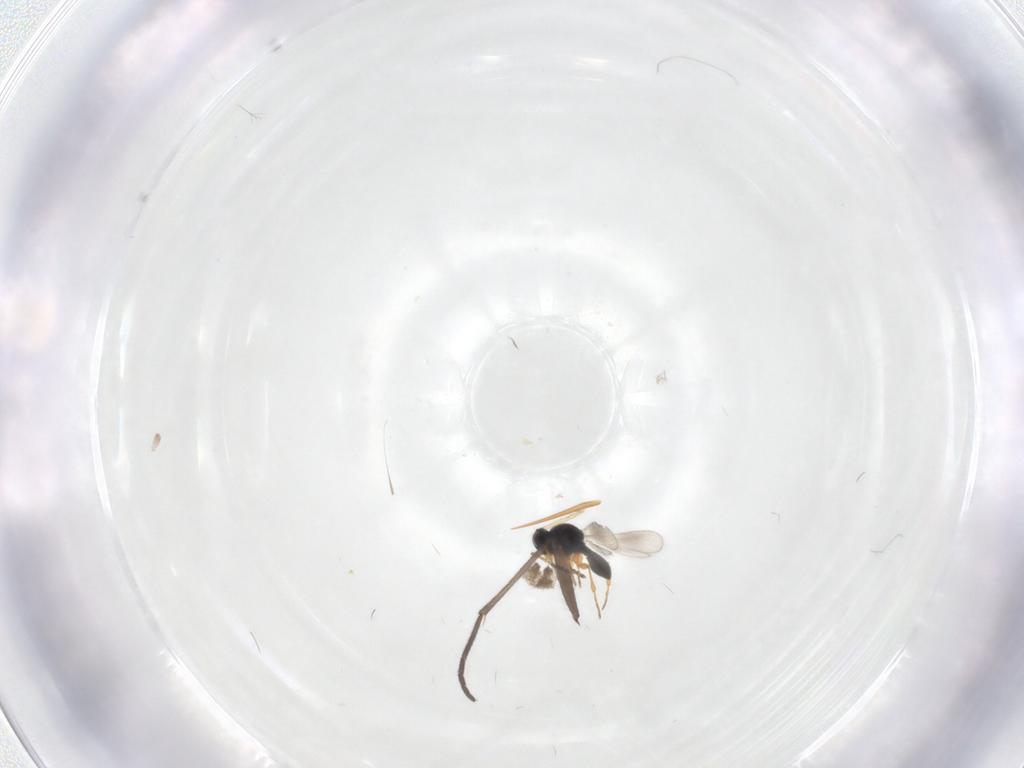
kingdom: Animalia
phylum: Arthropoda
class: Insecta
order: Hymenoptera
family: Platygastridae
